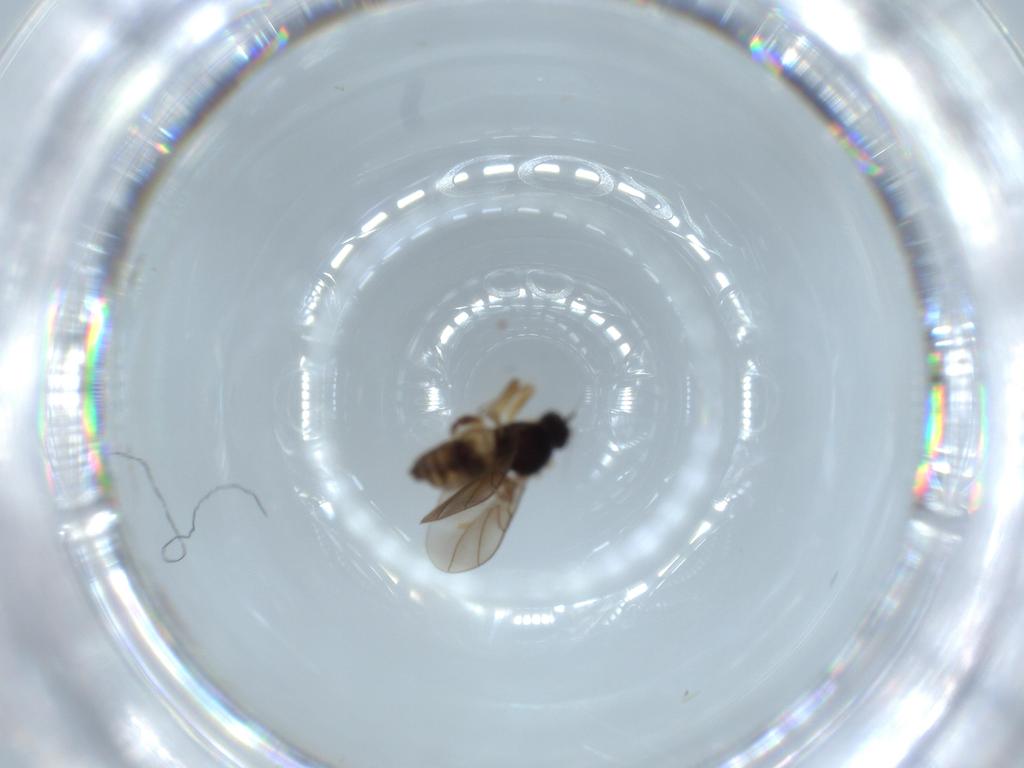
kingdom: Animalia
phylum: Arthropoda
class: Insecta
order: Diptera
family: Hybotidae
